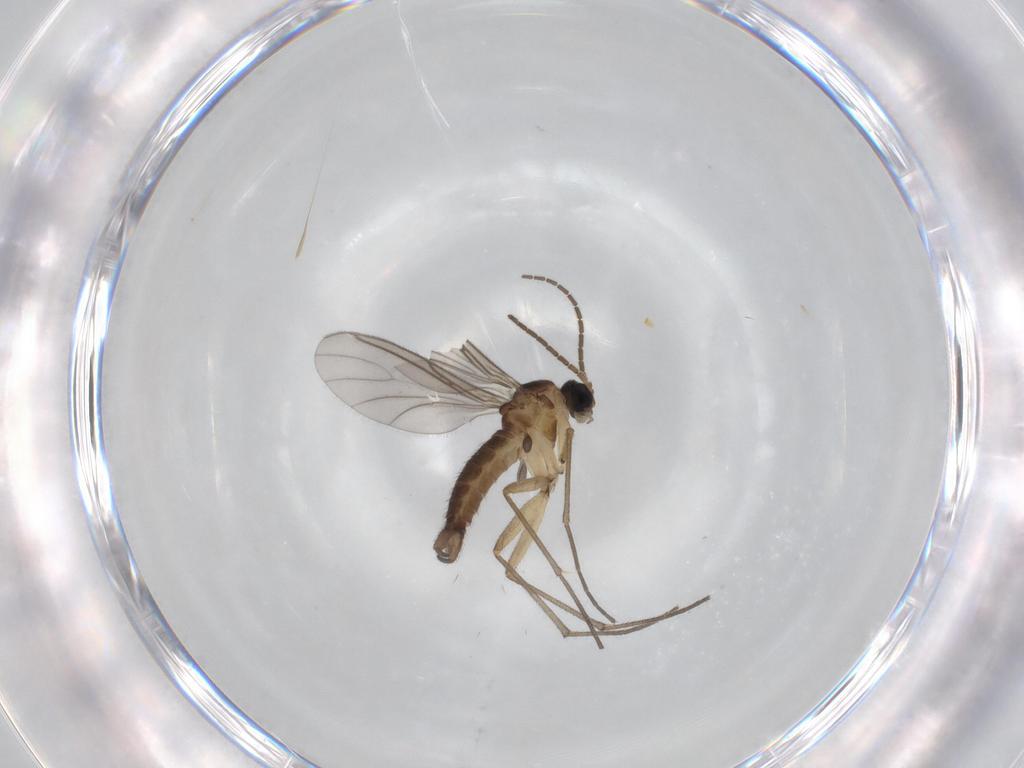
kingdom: Animalia
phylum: Arthropoda
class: Insecta
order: Diptera
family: Sciaridae
